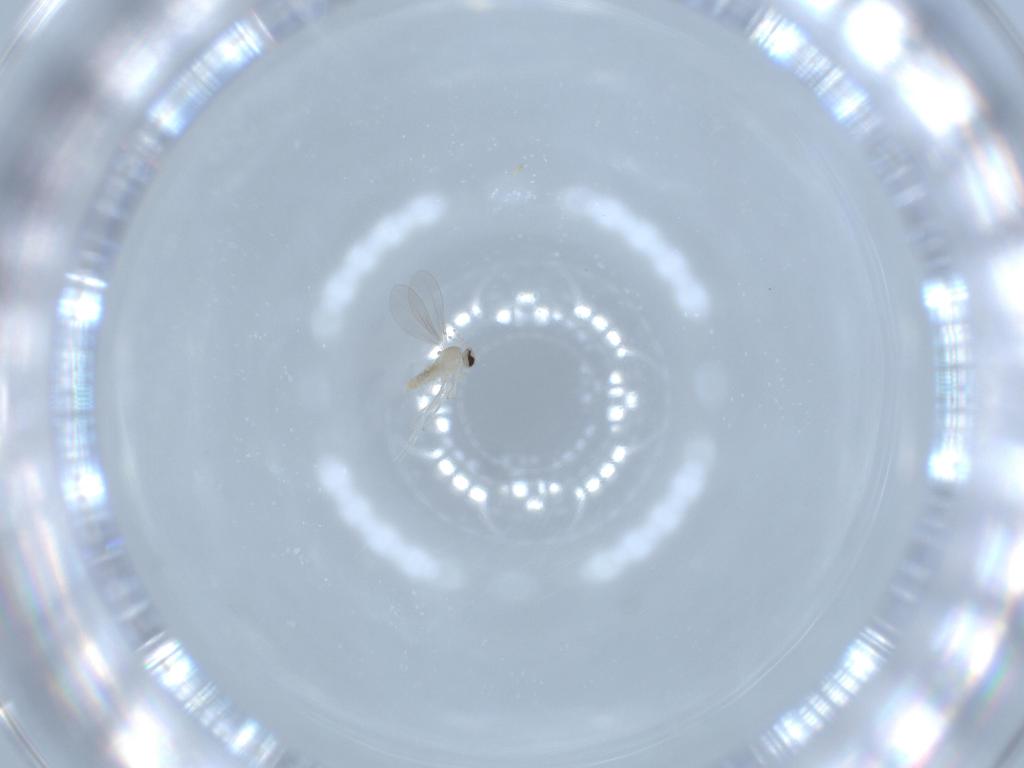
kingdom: Animalia
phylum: Arthropoda
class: Insecta
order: Diptera
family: Cecidomyiidae
